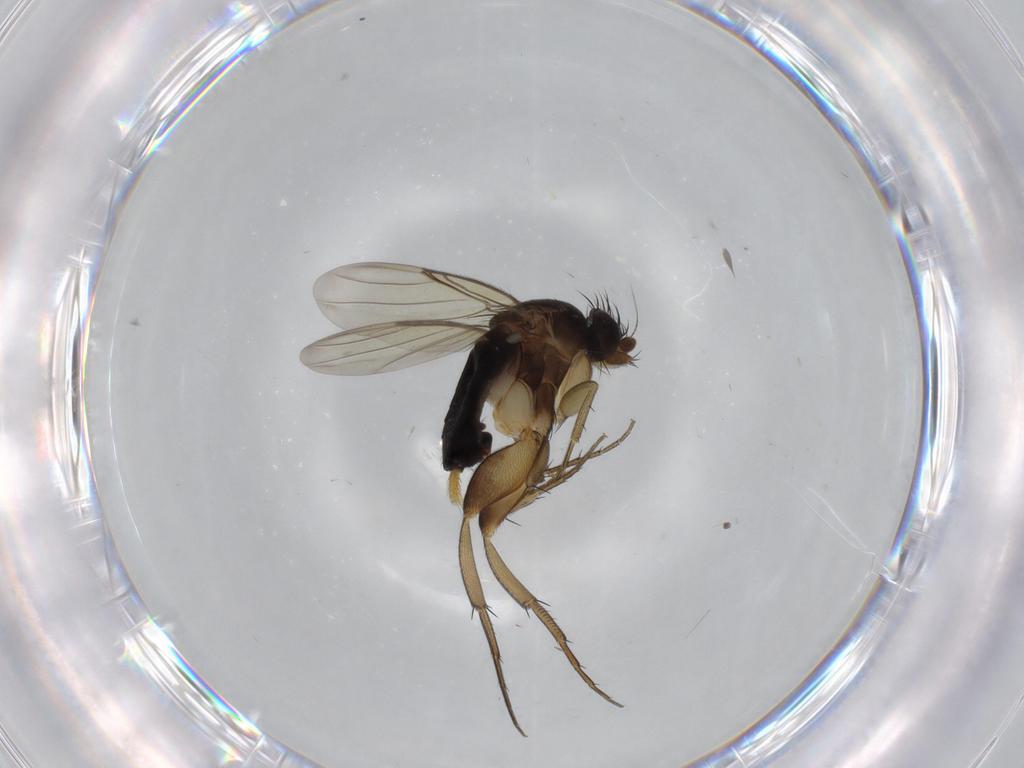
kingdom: Animalia
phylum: Arthropoda
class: Insecta
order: Diptera
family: Phoridae
